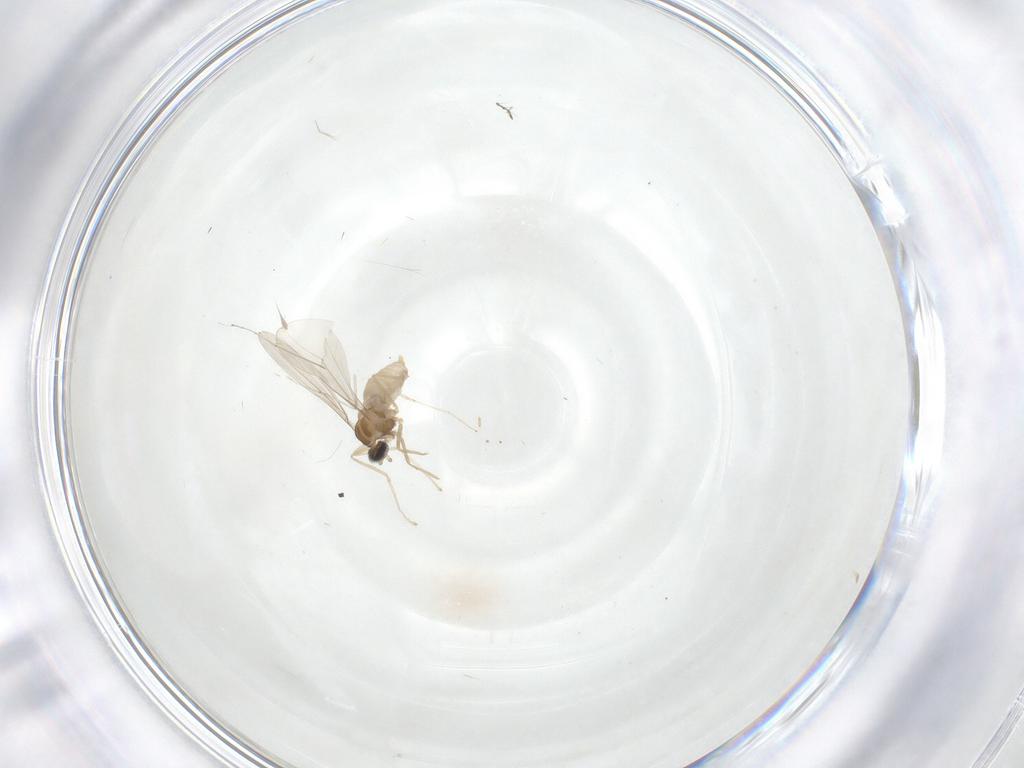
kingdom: Animalia
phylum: Arthropoda
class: Insecta
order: Diptera
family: Cecidomyiidae
